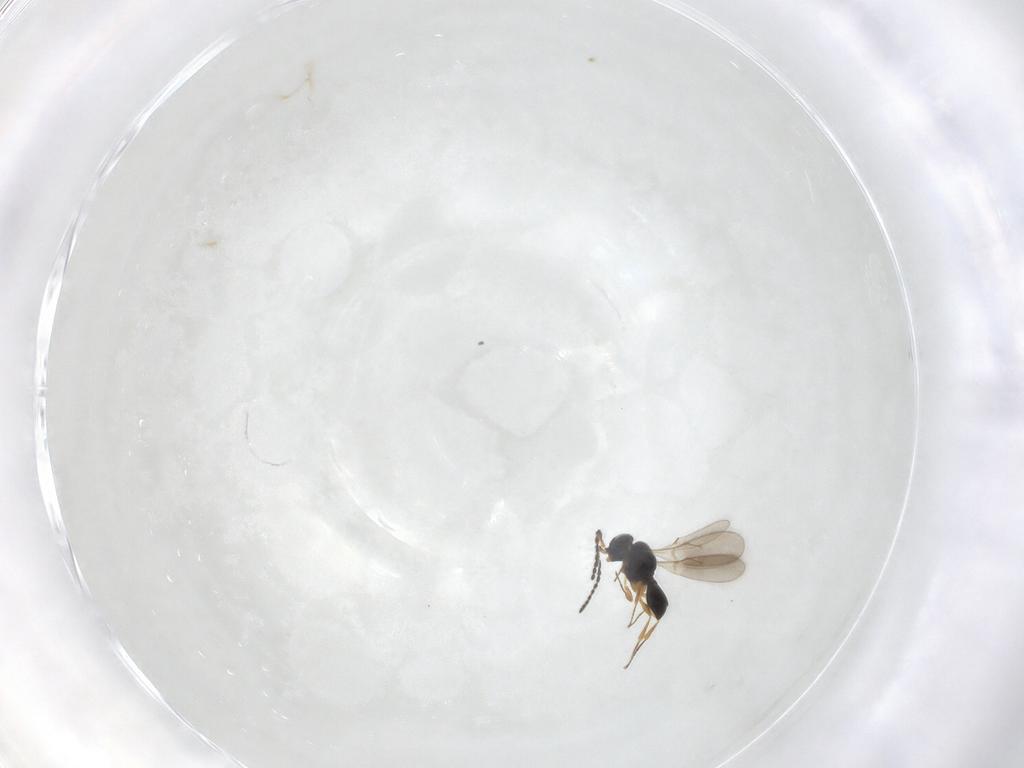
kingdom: Animalia
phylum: Arthropoda
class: Insecta
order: Hymenoptera
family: Scelionidae
